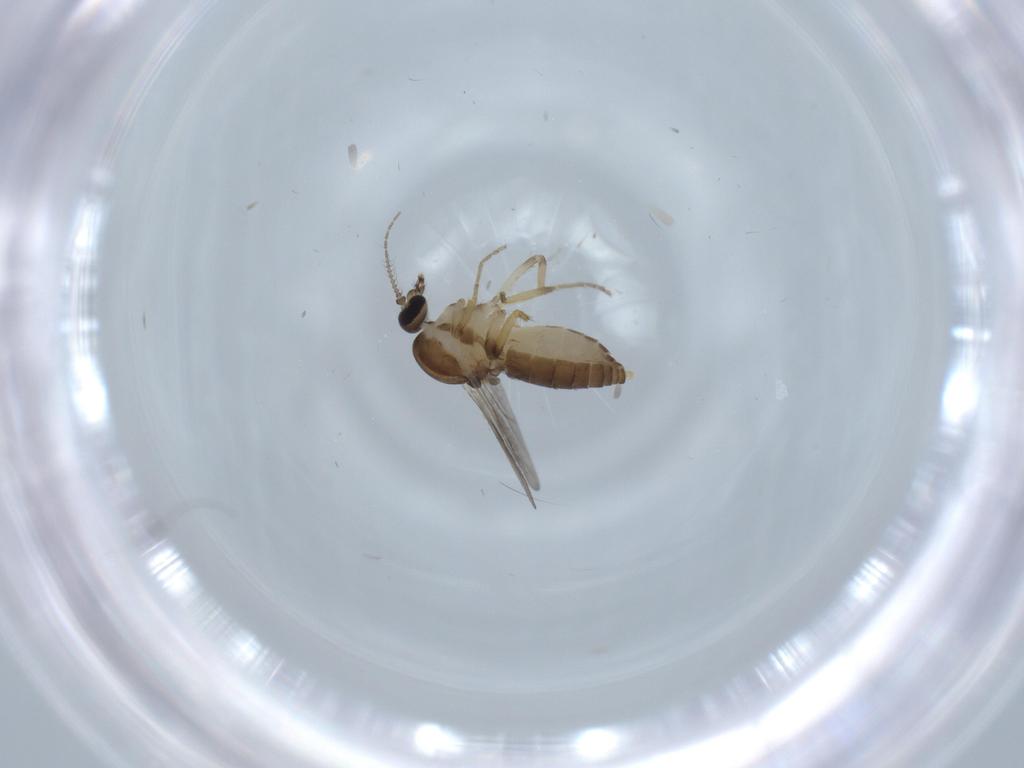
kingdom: Animalia
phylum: Arthropoda
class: Insecta
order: Diptera
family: Ceratopogonidae
